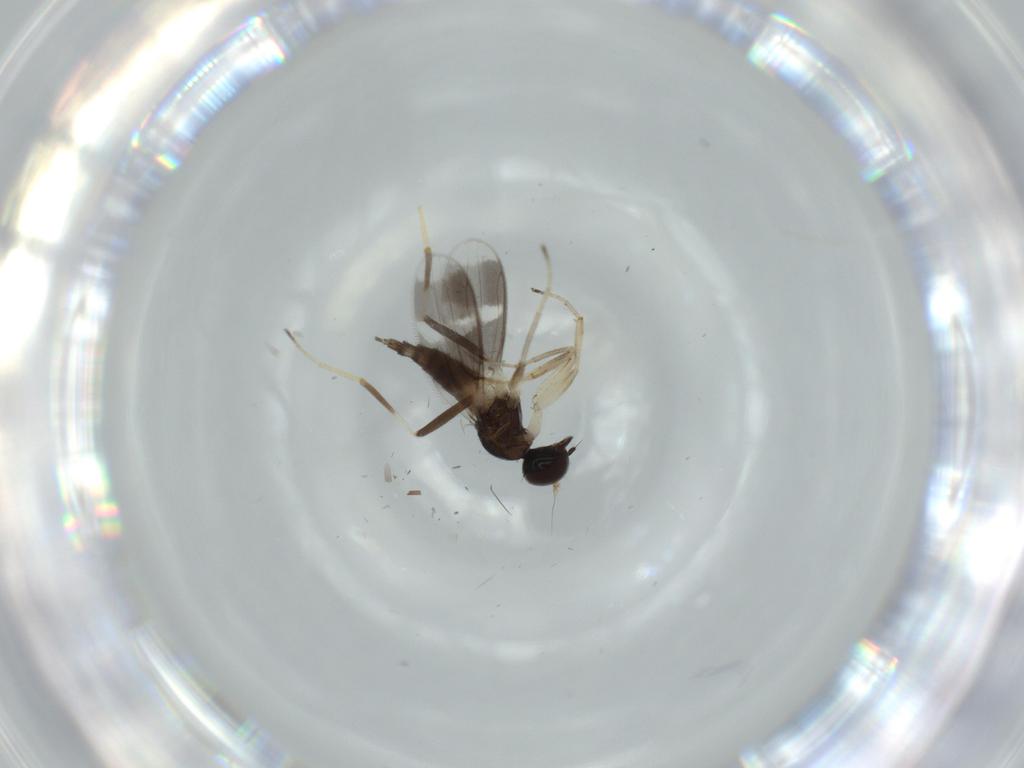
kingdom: Animalia
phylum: Arthropoda
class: Insecta
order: Diptera
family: Hybotidae
